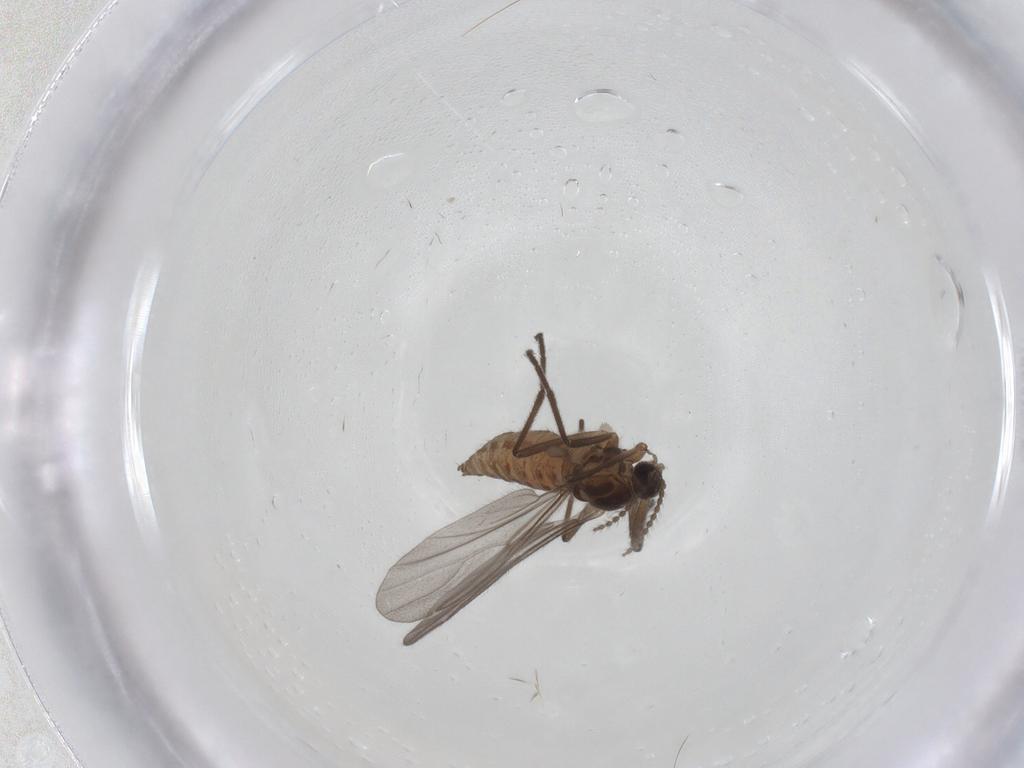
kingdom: Animalia
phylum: Arthropoda
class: Insecta
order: Diptera
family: Cecidomyiidae
